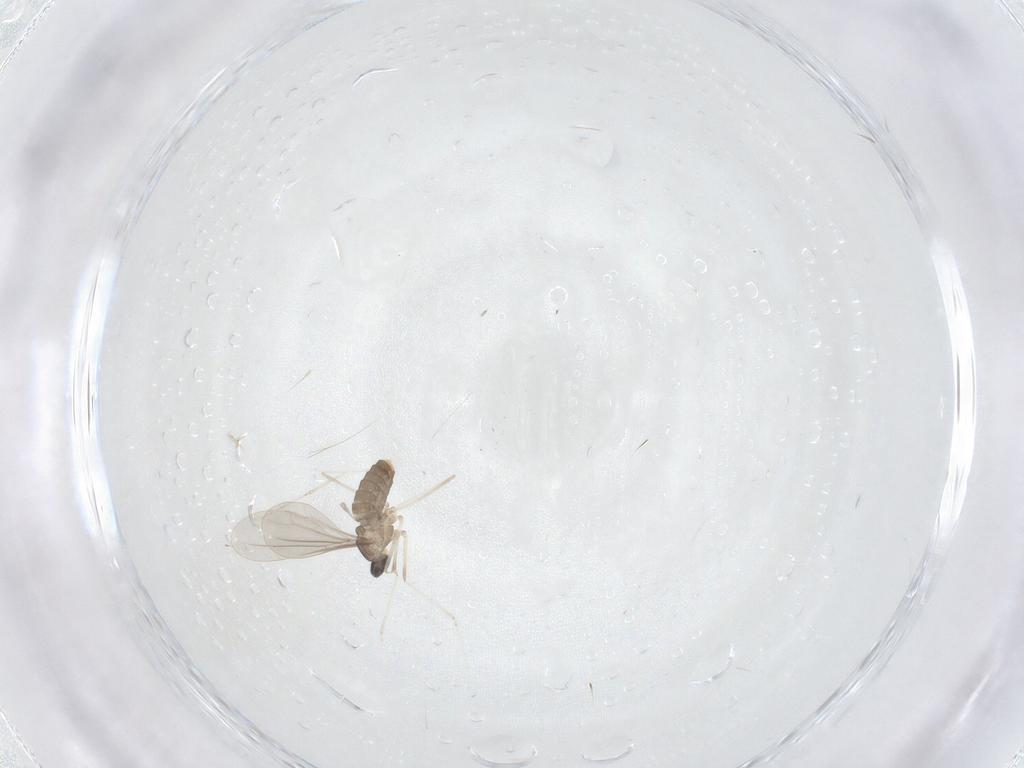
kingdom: Animalia
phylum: Arthropoda
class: Insecta
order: Diptera
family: Cecidomyiidae
